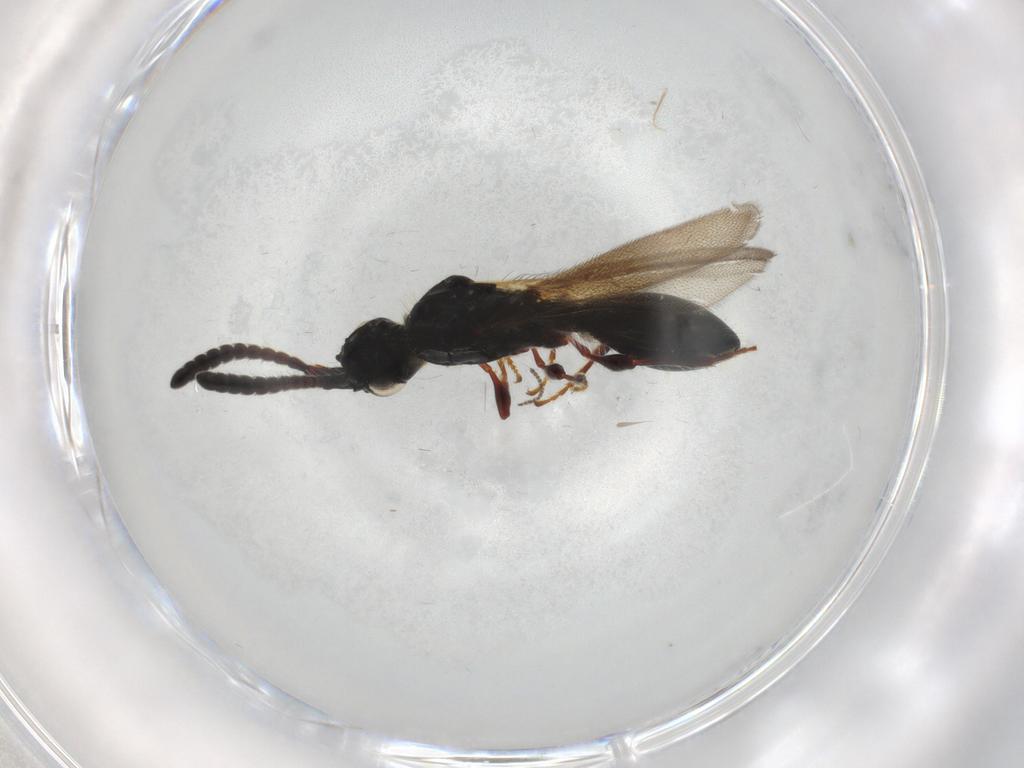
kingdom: Animalia
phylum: Arthropoda
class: Insecta
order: Hymenoptera
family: Diapriidae
